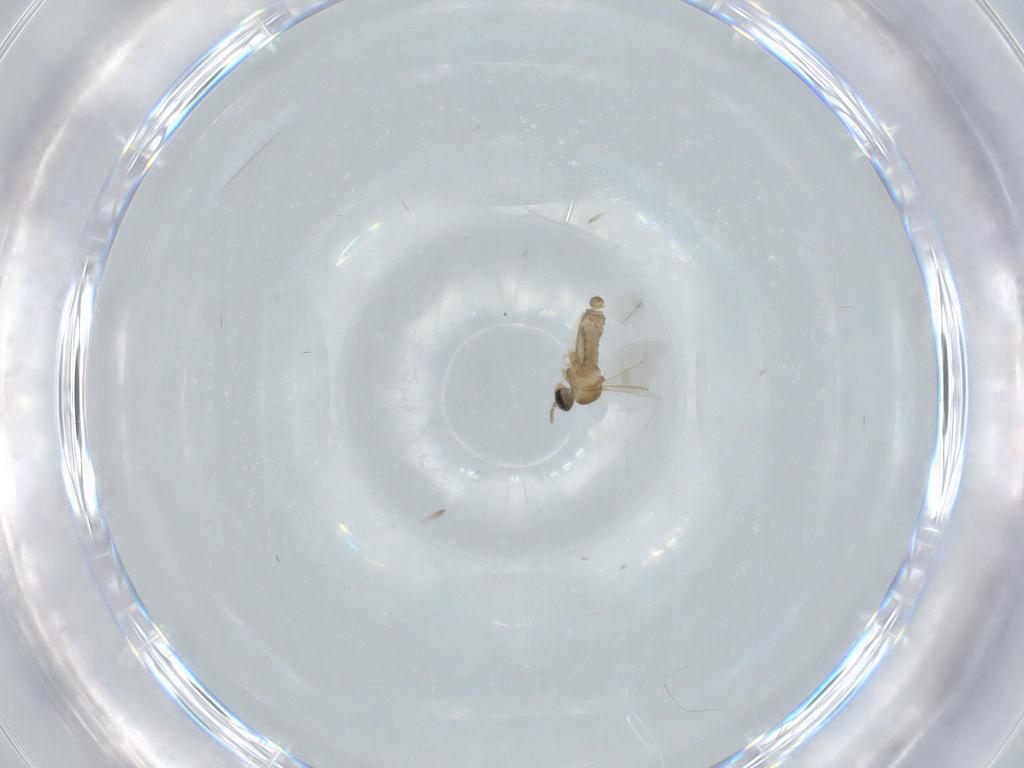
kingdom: Animalia
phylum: Arthropoda
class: Insecta
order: Diptera
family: Cecidomyiidae
